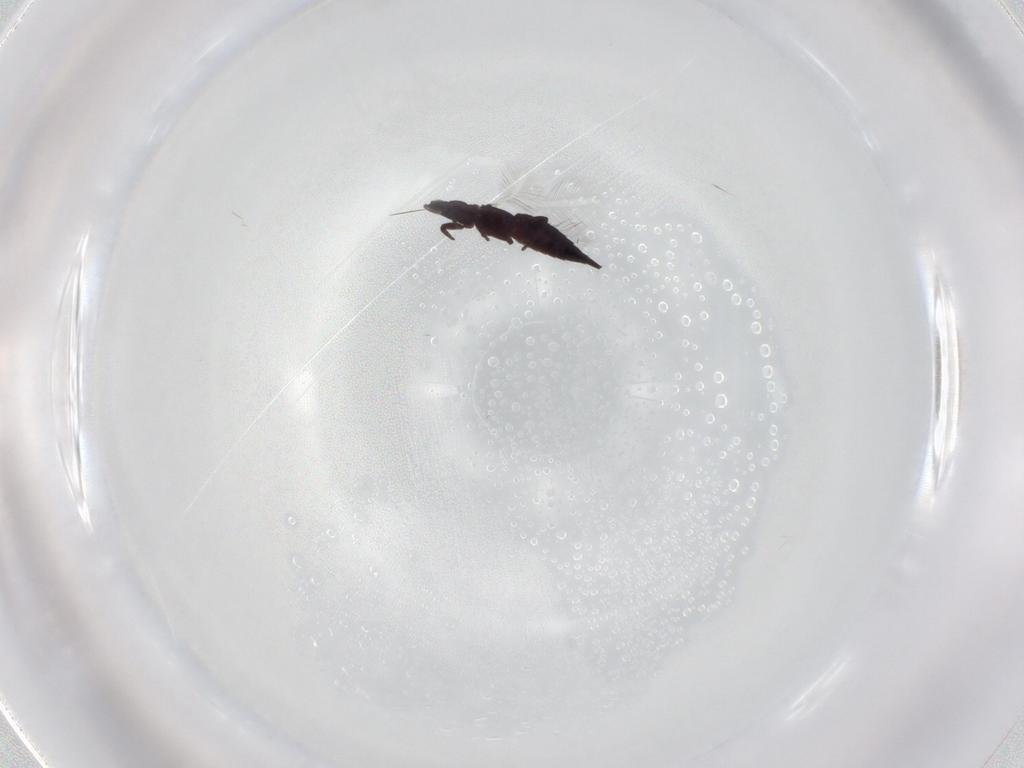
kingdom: Animalia
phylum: Arthropoda
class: Insecta
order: Thysanoptera
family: Phlaeothripidae
